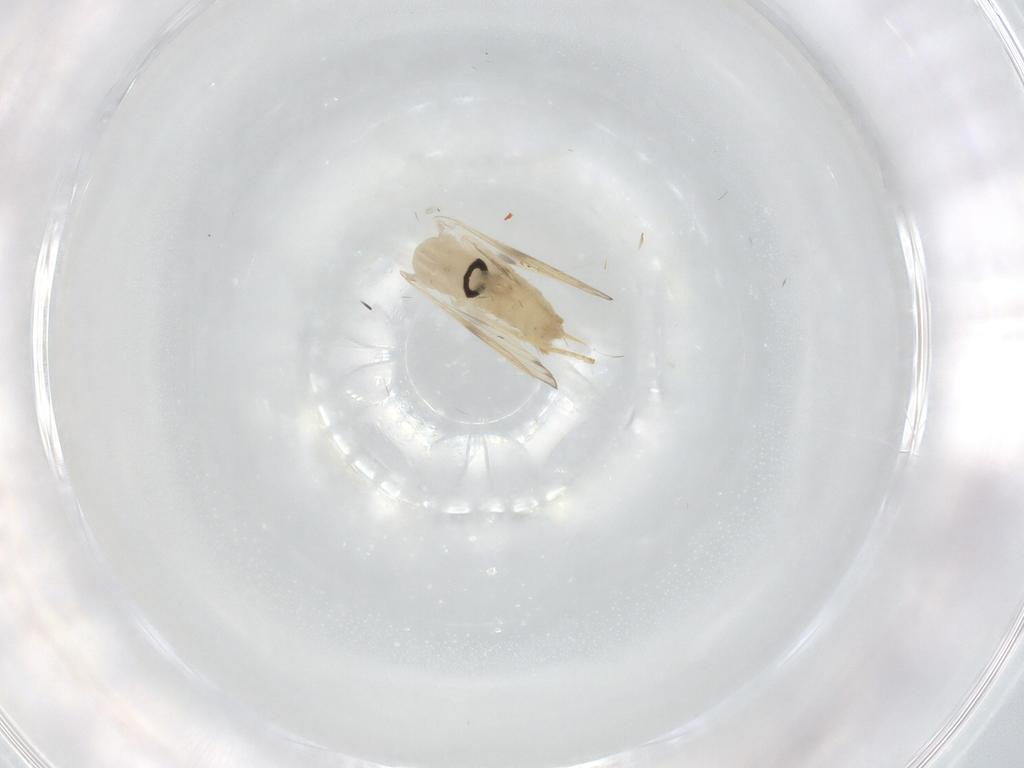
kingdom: Animalia
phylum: Arthropoda
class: Insecta
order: Diptera
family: Psychodidae
